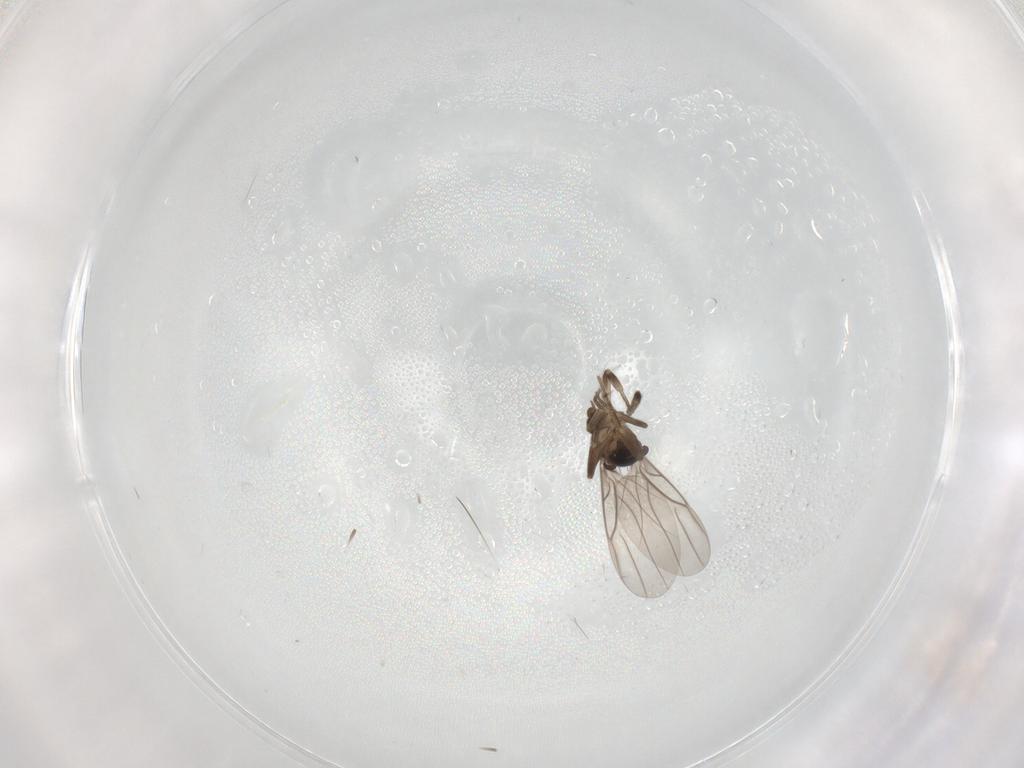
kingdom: Animalia
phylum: Arthropoda
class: Insecta
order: Diptera
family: Phoridae
